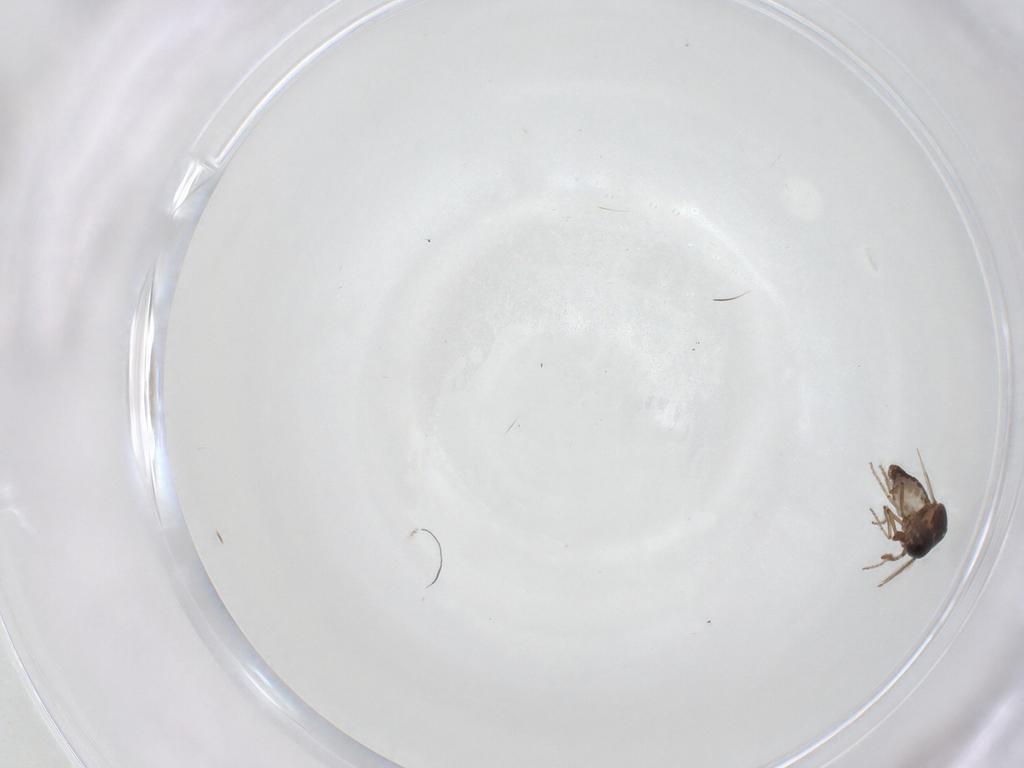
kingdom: Animalia
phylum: Arthropoda
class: Insecta
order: Diptera
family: Ceratopogonidae
